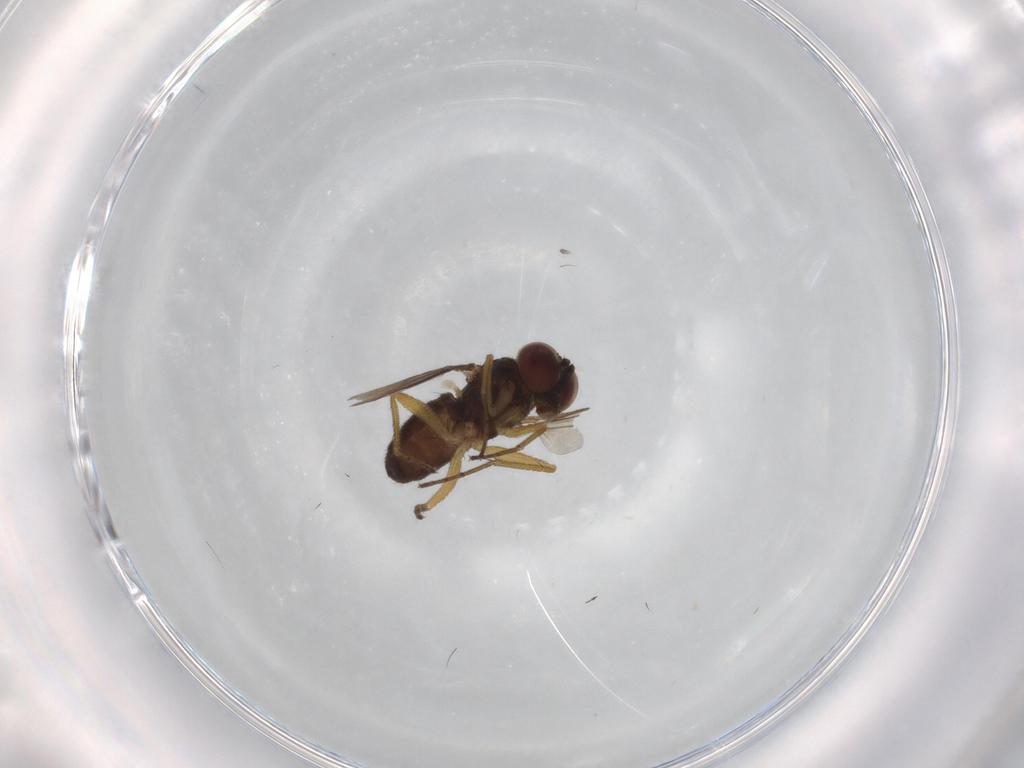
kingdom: Animalia
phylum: Arthropoda
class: Insecta
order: Diptera
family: Dolichopodidae
